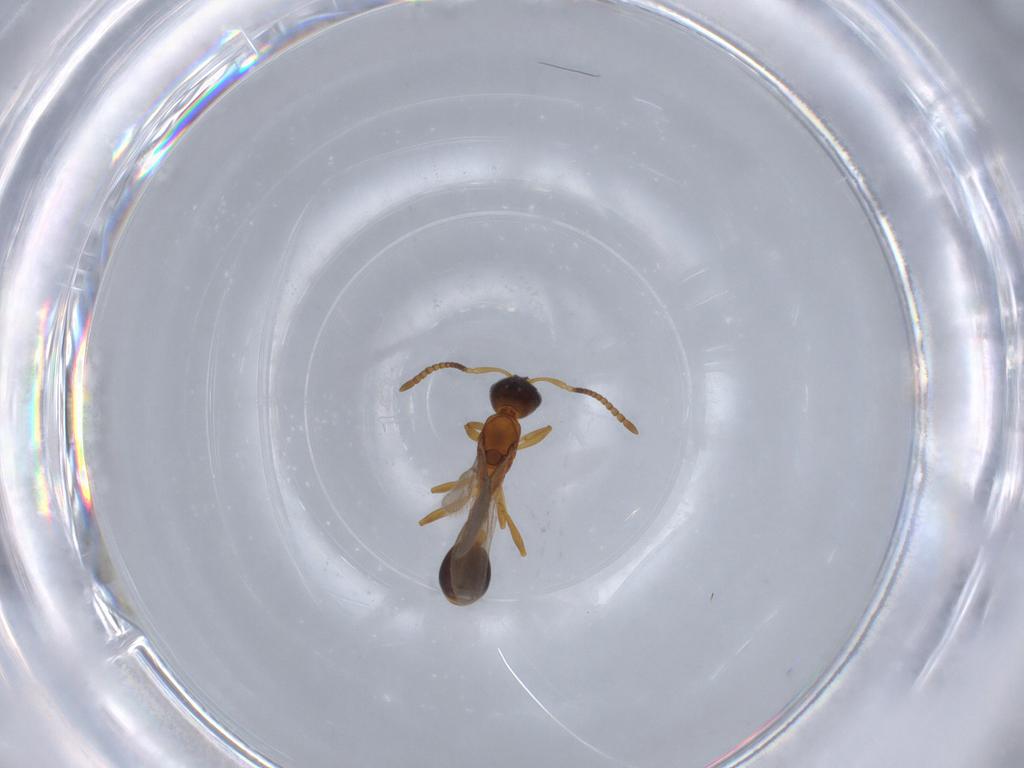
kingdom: Animalia
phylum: Arthropoda
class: Insecta
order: Hymenoptera
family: Formicidae
